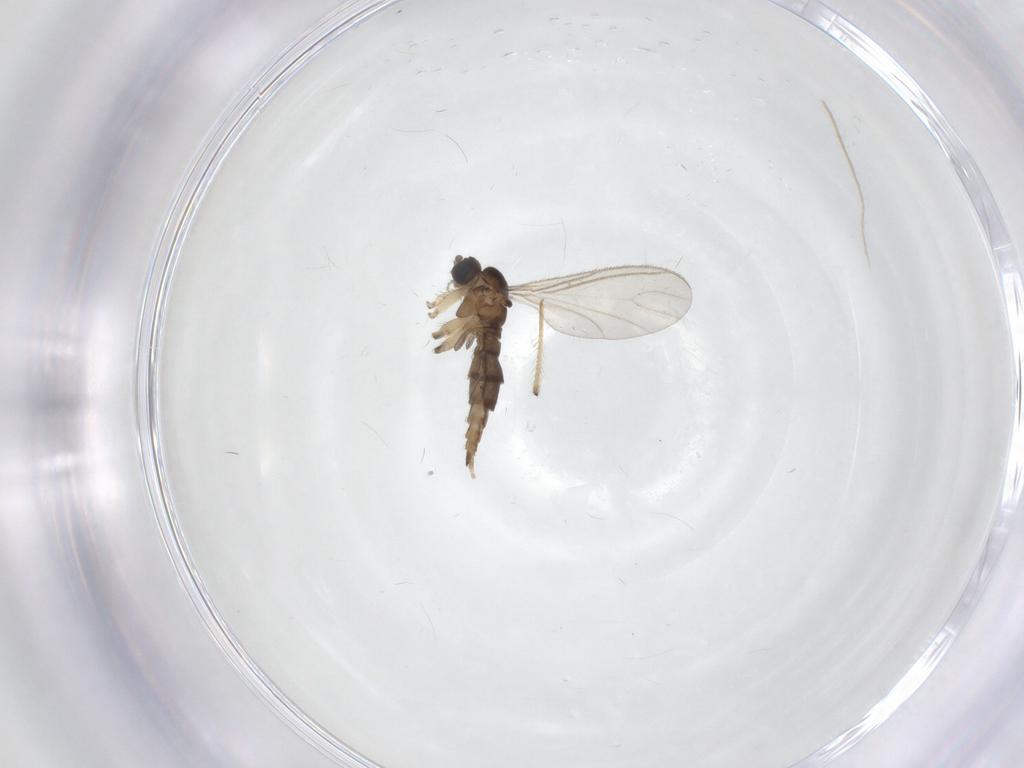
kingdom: Animalia
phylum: Arthropoda
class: Insecta
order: Diptera
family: Sciaridae
